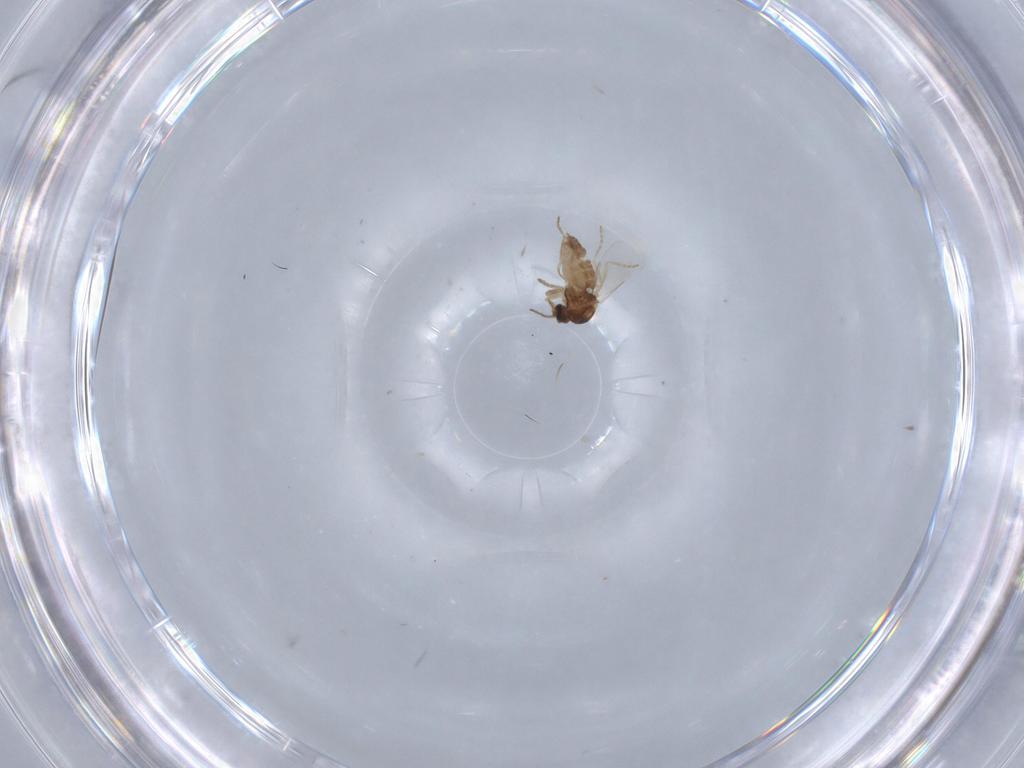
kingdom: Animalia
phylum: Arthropoda
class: Insecta
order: Diptera
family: Ceratopogonidae
